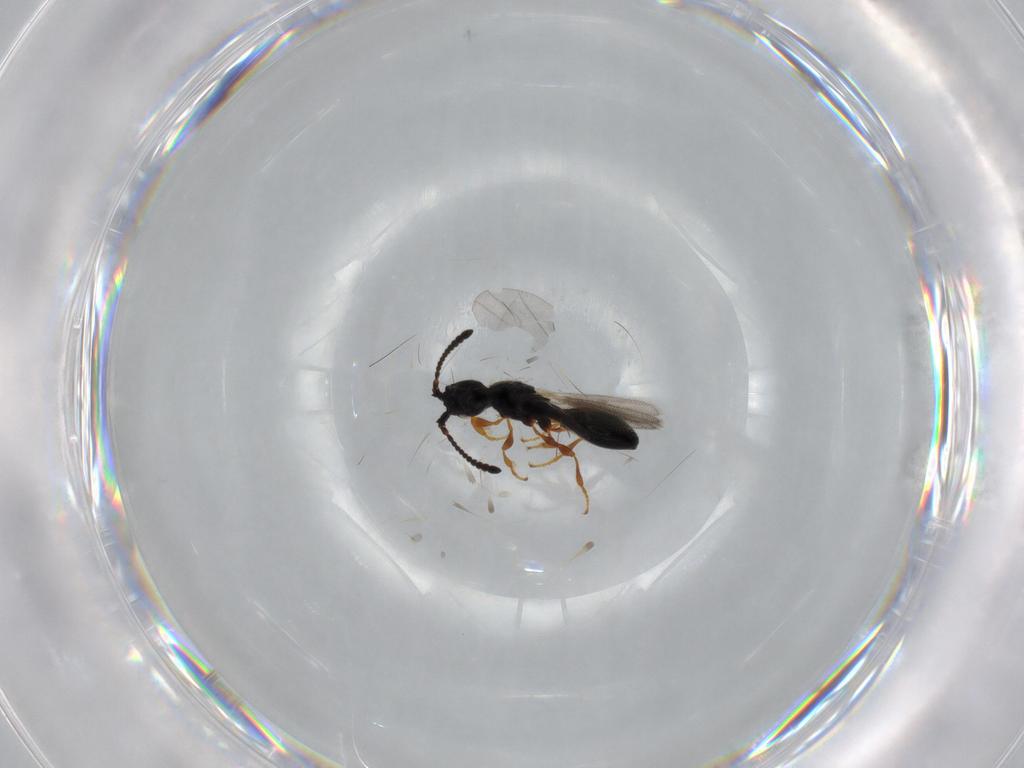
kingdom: Animalia
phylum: Arthropoda
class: Insecta
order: Hymenoptera
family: Diapriidae
